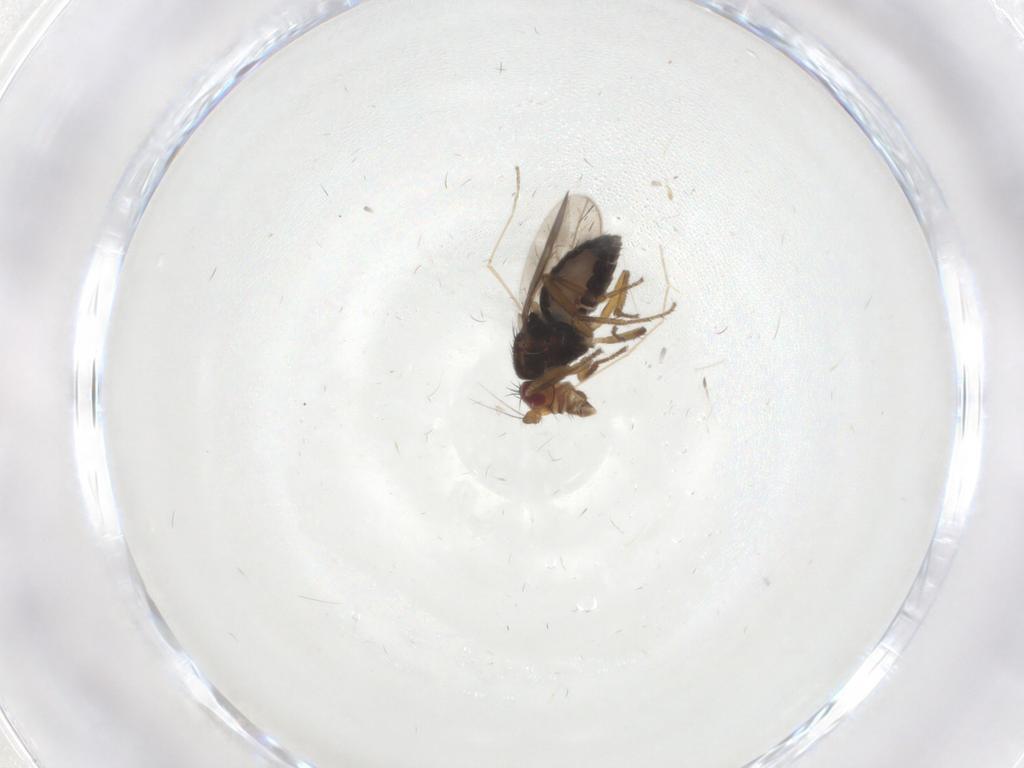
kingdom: Animalia
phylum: Arthropoda
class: Insecta
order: Diptera
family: Sphaeroceridae
